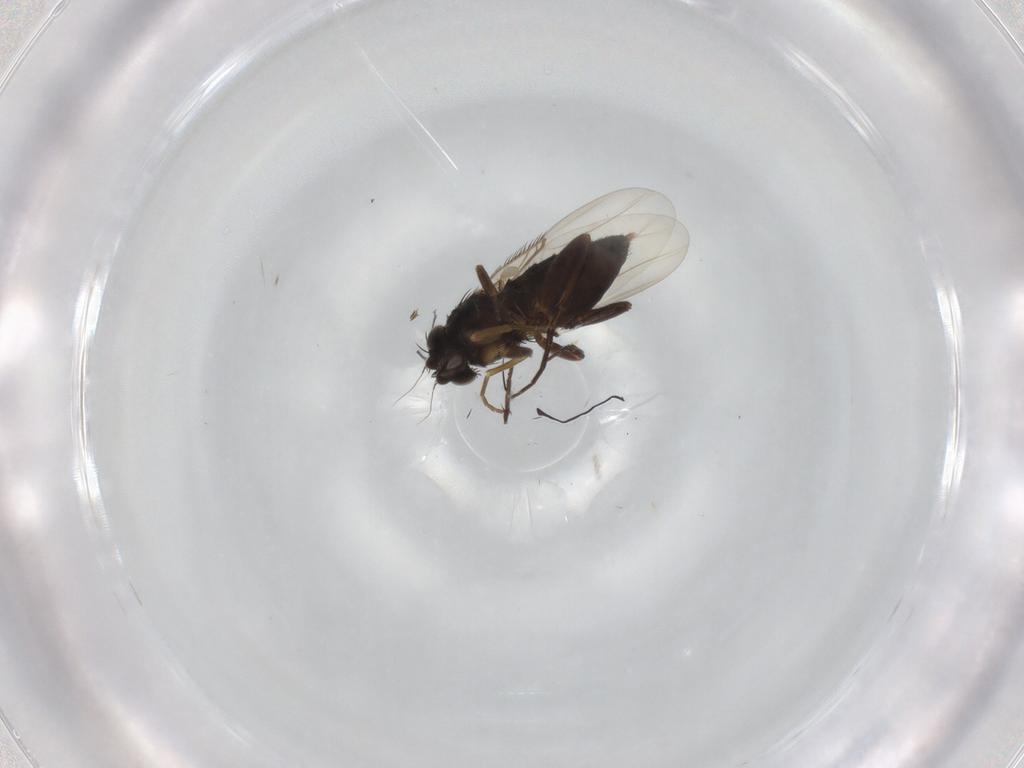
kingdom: Animalia
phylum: Arthropoda
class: Insecta
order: Diptera
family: Phoridae
